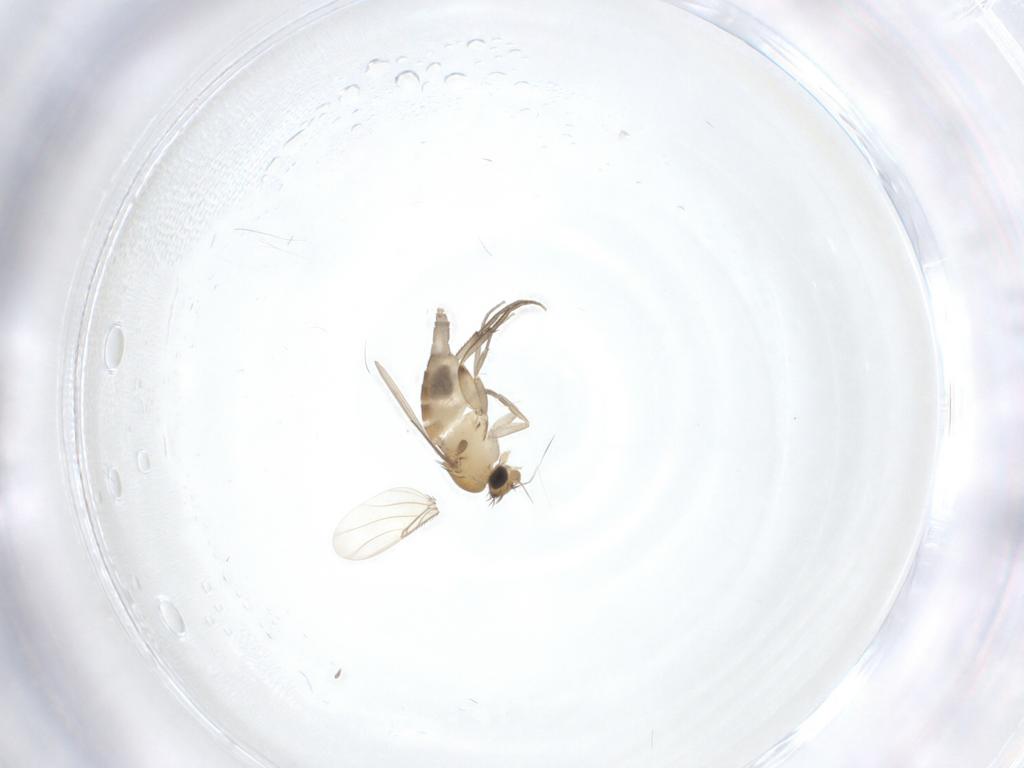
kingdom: Animalia
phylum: Arthropoda
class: Insecta
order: Diptera
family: Phoridae
